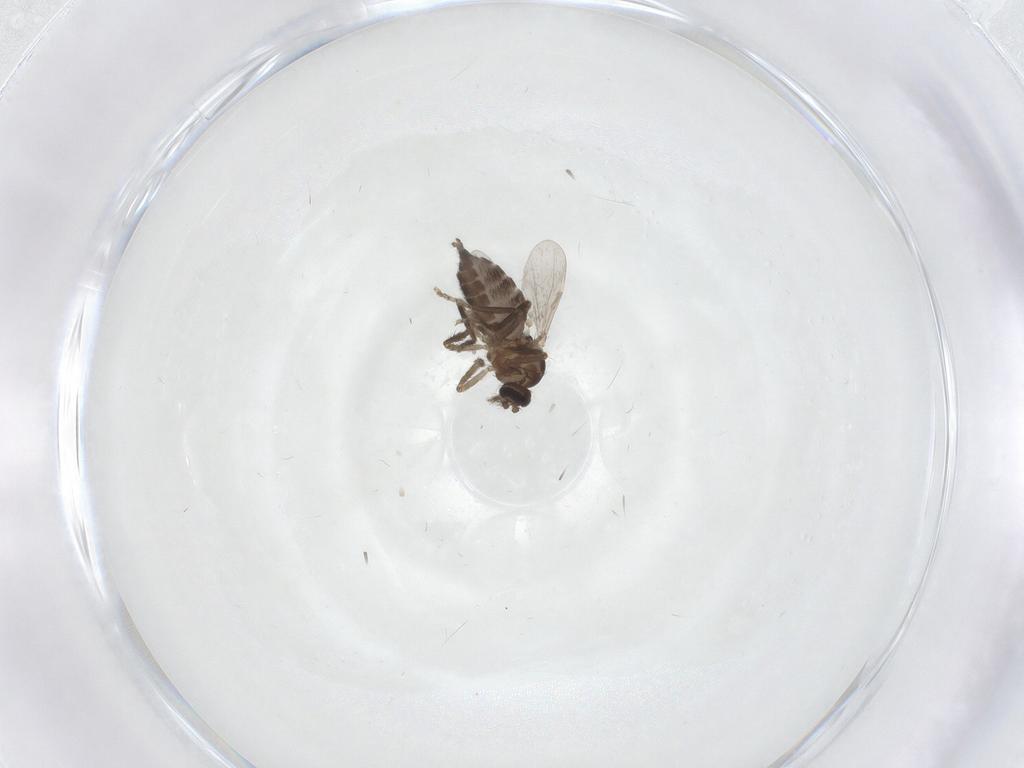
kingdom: Animalia
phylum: Arthropoda
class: Insecta
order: Diptera
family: Ceratopogonidae
